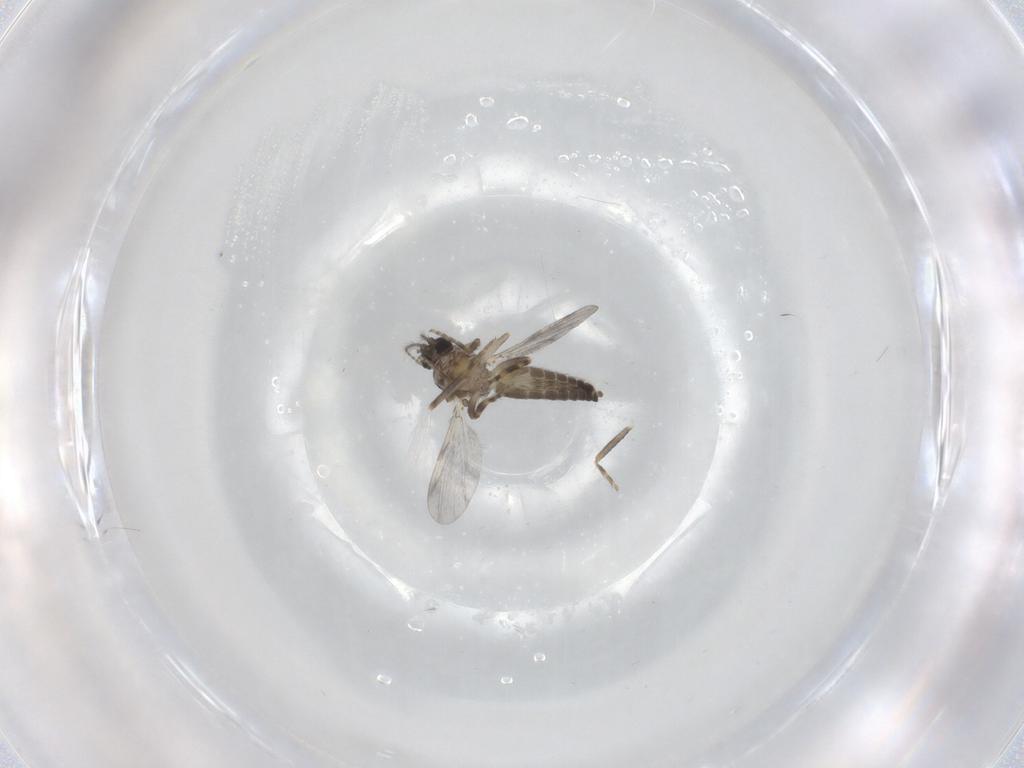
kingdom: Animalia
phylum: Arthropoda
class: Insecta
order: Diptera
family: Ceratopogonidae
